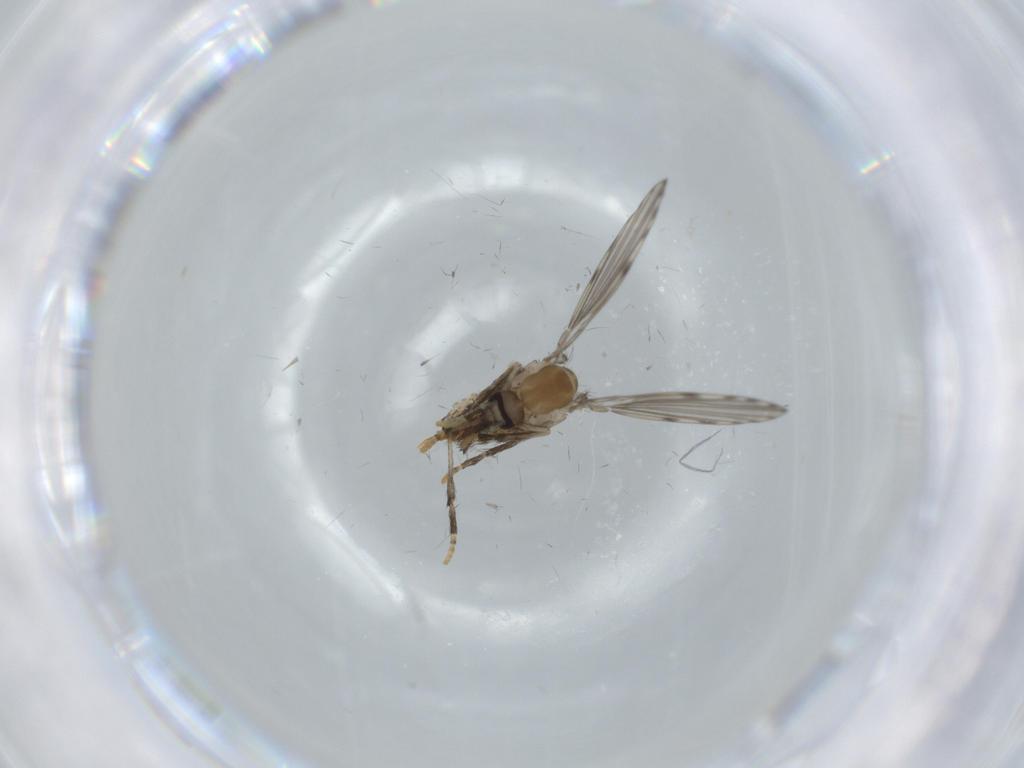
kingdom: Animalia
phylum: Arthropoda
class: Insecta
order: Diptera
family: Psychodidae
